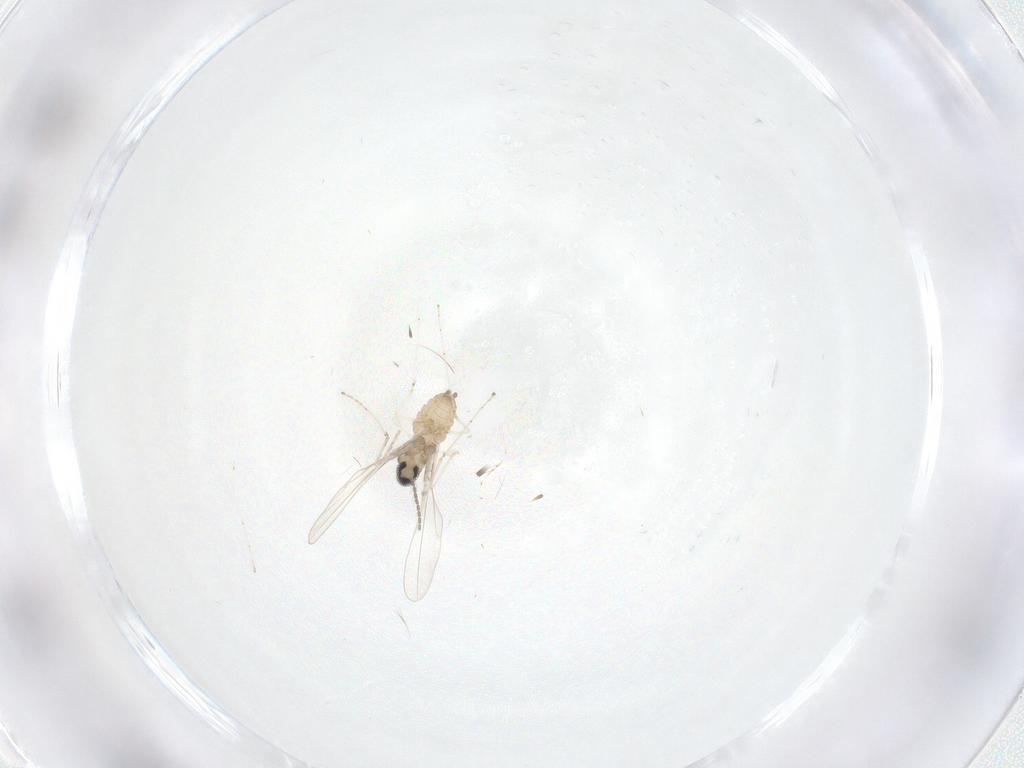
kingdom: Animalia
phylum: Arthropoda
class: Insecta
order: Diptera
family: Cecidomyiidae
